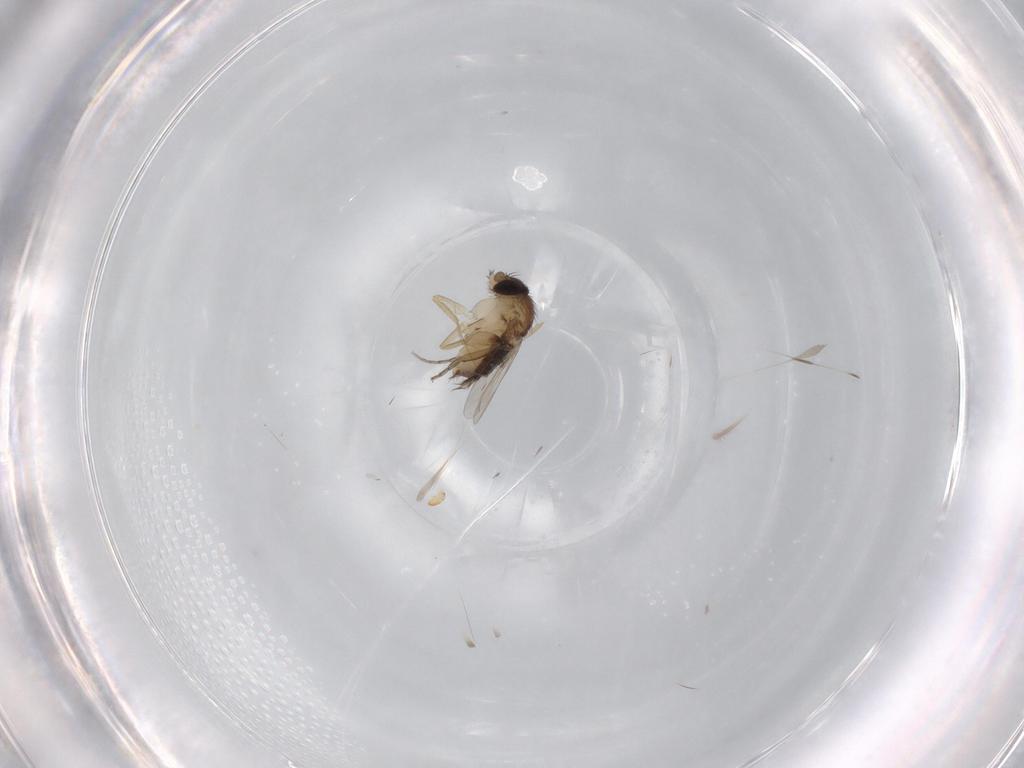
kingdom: Animalia
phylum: Arthropoda
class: Insecta
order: Diptera
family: Phoridae
